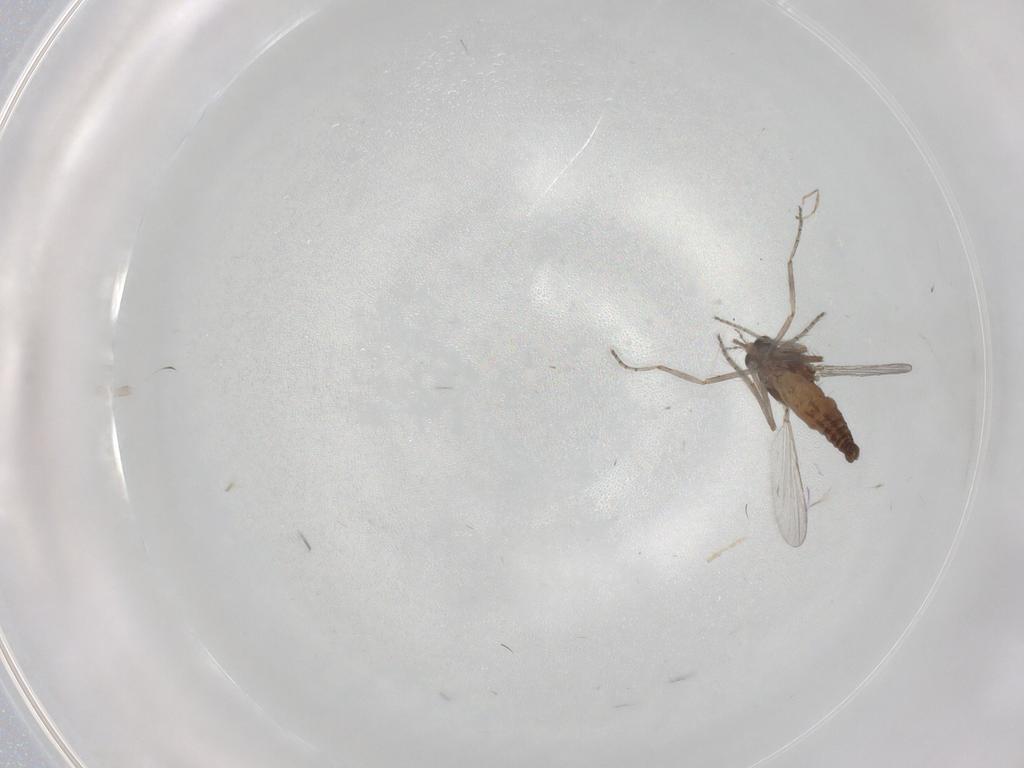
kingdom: Animalia
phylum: Arthropoda
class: Insecta
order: Diptera
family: Ceratopogonidae
